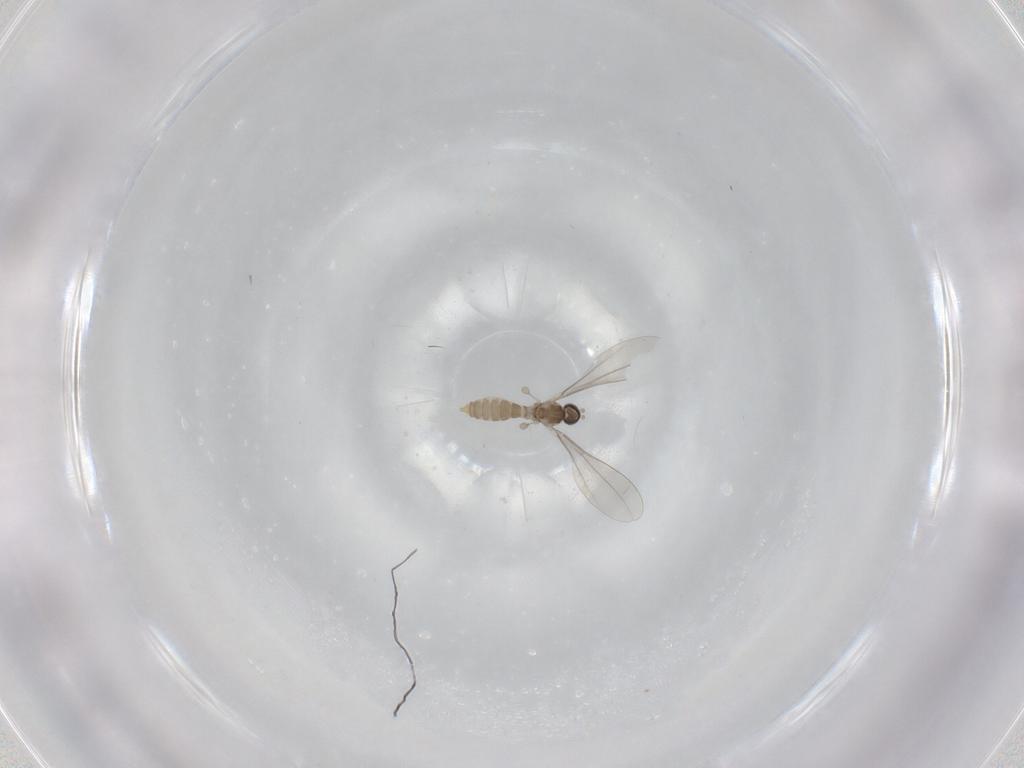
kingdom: Animalia
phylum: Arthropoda
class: Insecta
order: Diptera
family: Cecidomyiidae
